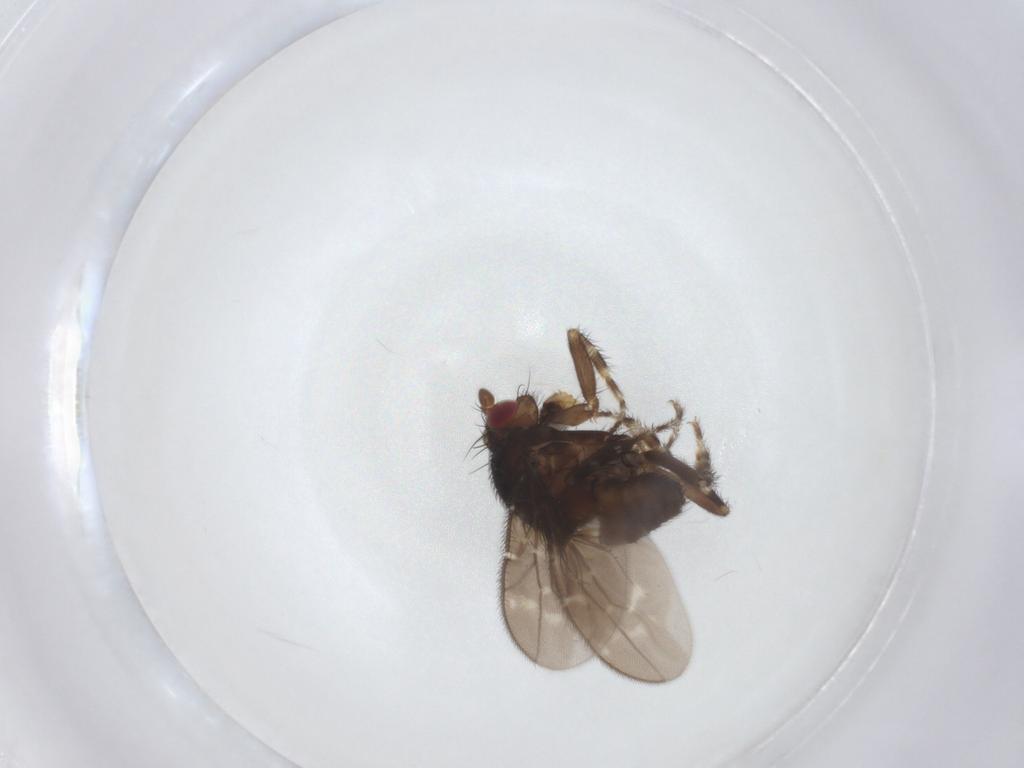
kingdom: Animalia
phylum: Arthropoda
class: Insecta
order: Diptera
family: Sphaeroceridae
